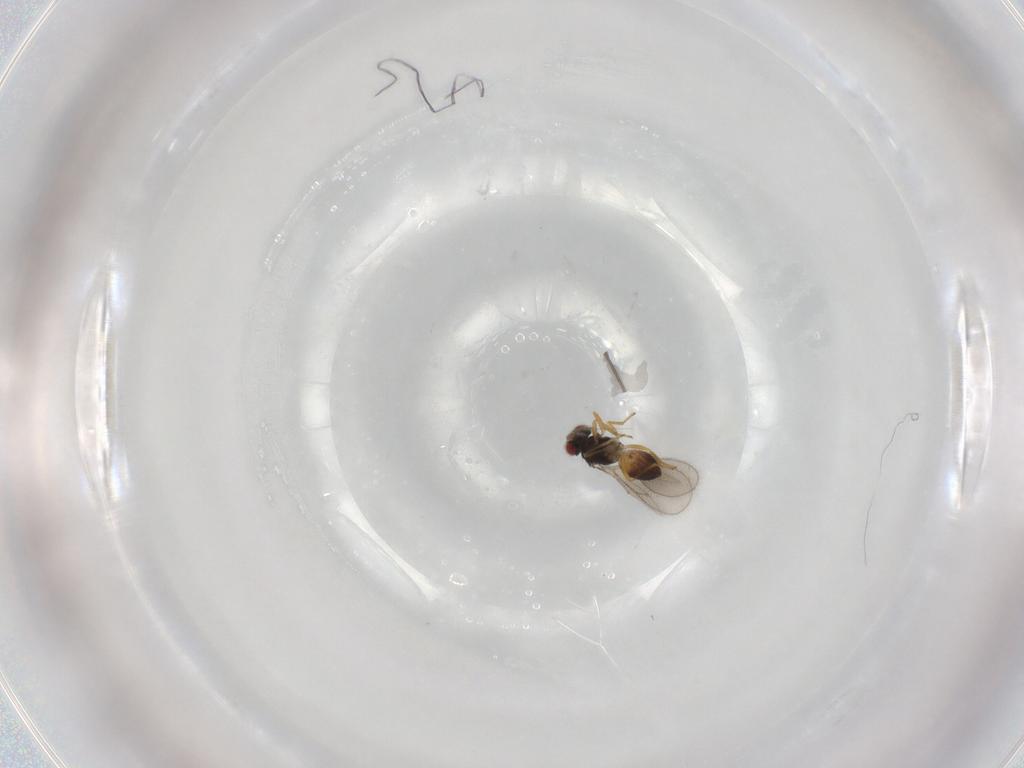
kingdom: Animalia
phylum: Arthropoda
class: Insecta
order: Hymenoptera
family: Eulophidae
